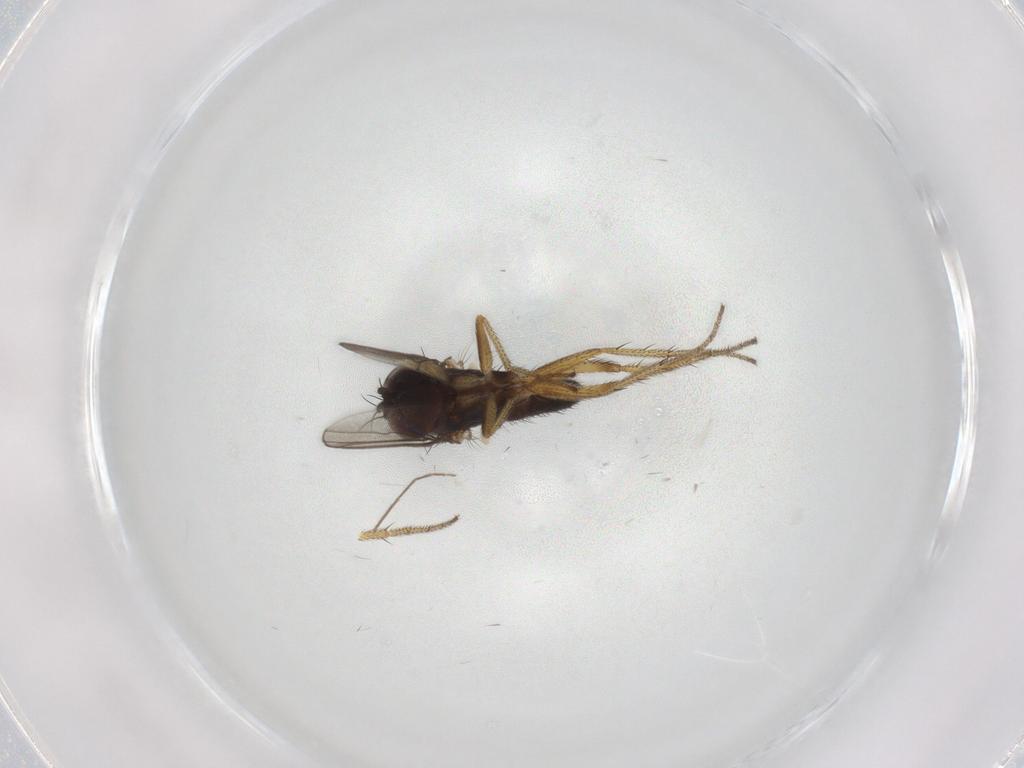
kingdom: Animalia
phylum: Arthropoda
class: Insecta
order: Diptera
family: Dolichopodidae
